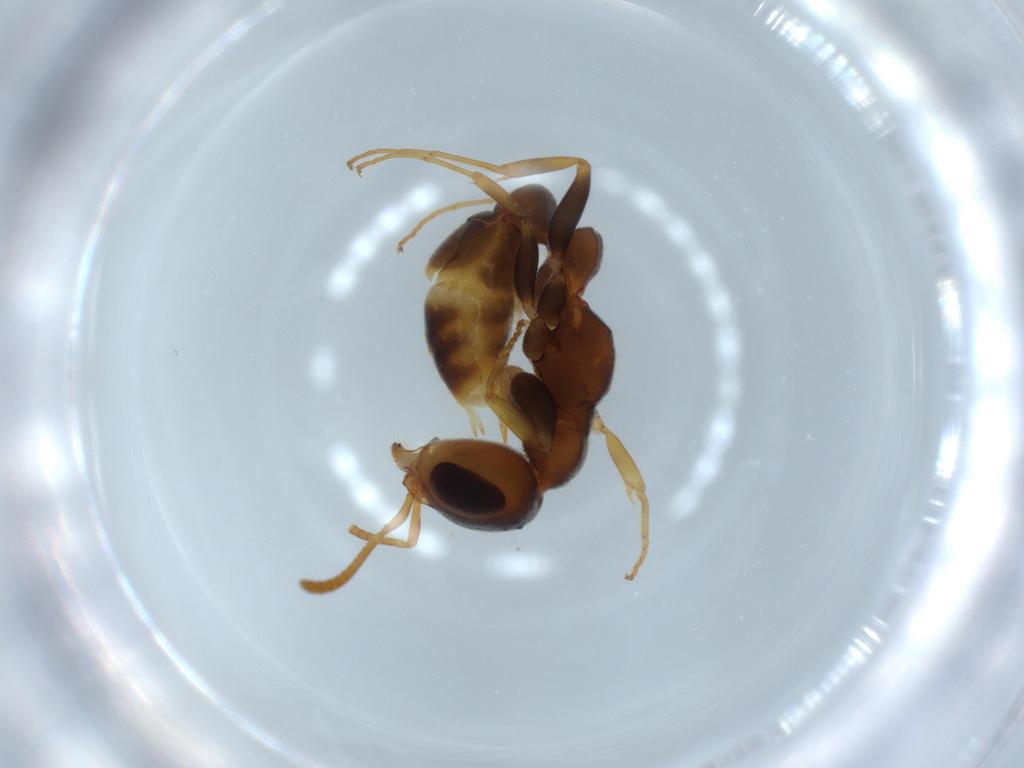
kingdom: Animalia
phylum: Arthropoda
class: Insecta
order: Hymenoptera
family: Formicidae
